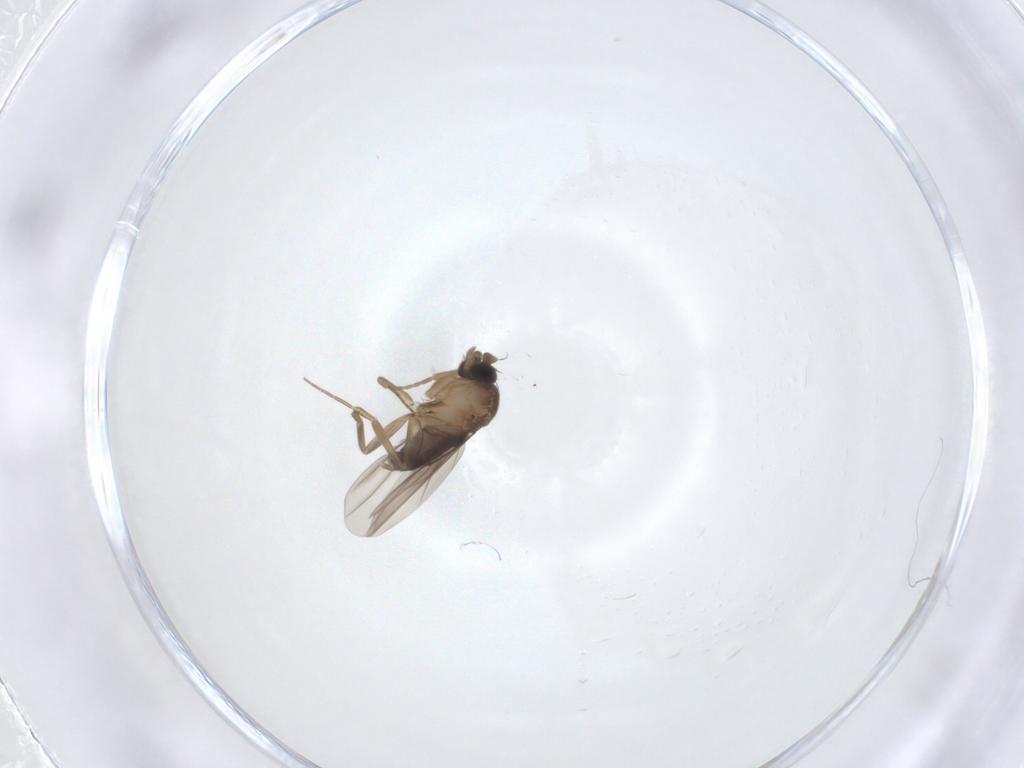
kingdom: Animalia
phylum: Arthropoda
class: Insecta
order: Diptera
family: Phoridae
